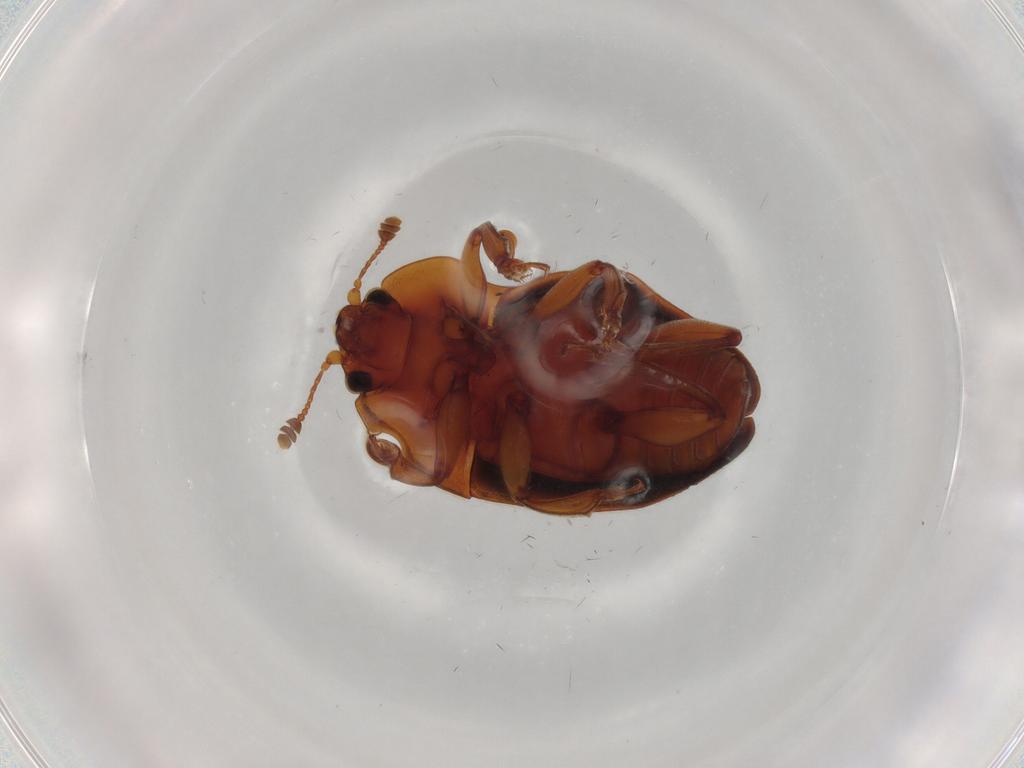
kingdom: Animalia
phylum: Arthropoda
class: Insecta
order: Coleoptera
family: Nitidulidae
